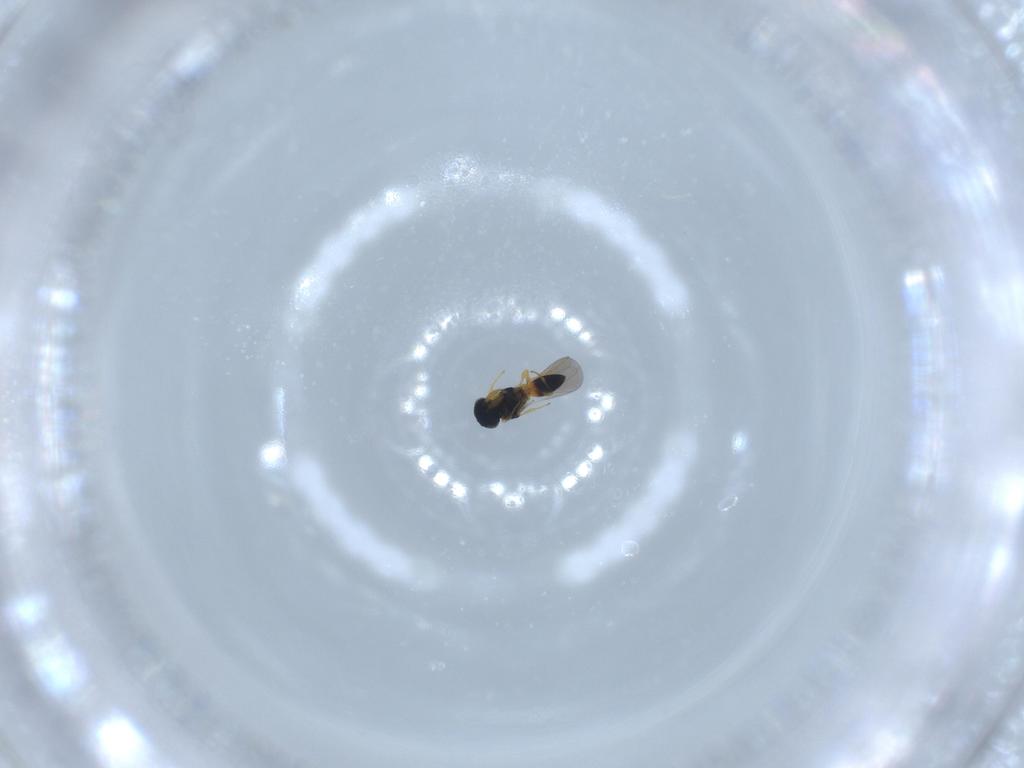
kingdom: Animalia
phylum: Arthropoda
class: Insecta
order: Hymenoptera
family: Platygastridae
